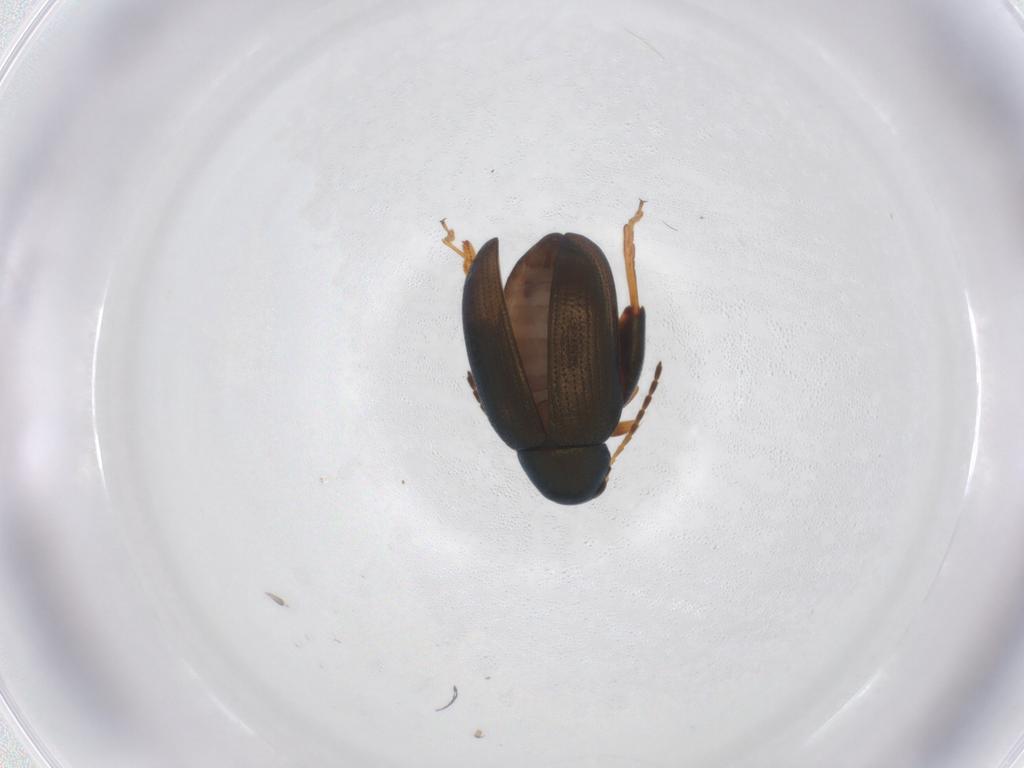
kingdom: Animalia
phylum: Arthropoda
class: Insecta
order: Coleoptera
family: Chrysomelidae
